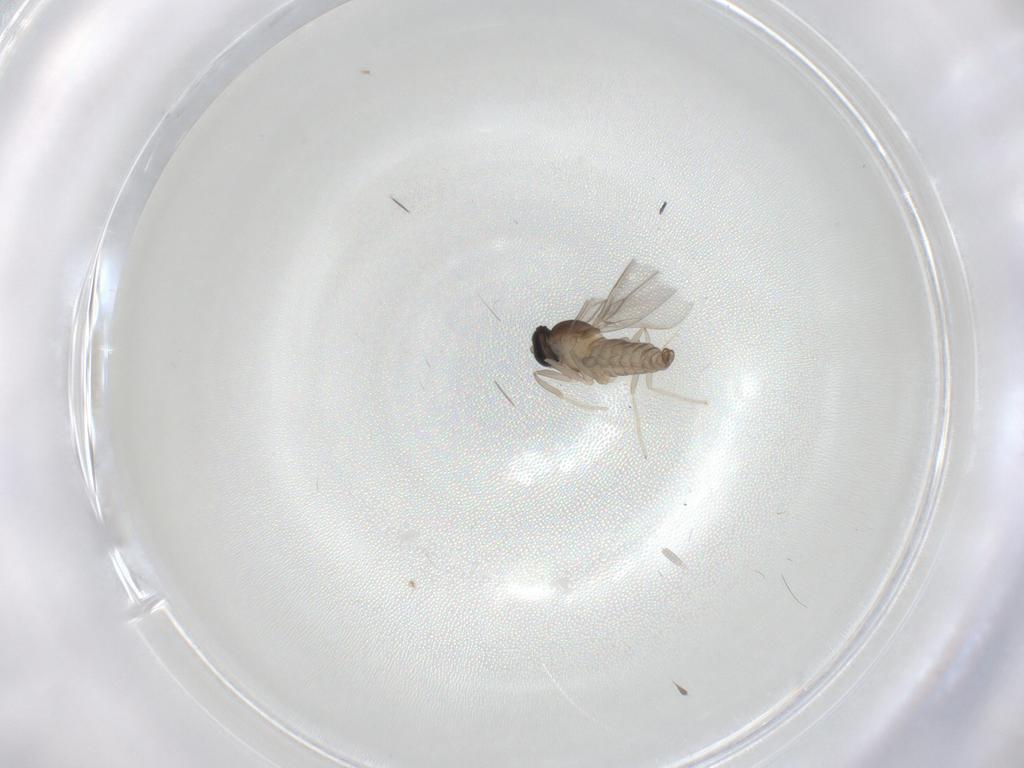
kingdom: Animalia
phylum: Arthropoda
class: Insecta
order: Diptera
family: Cecidomyiidae
